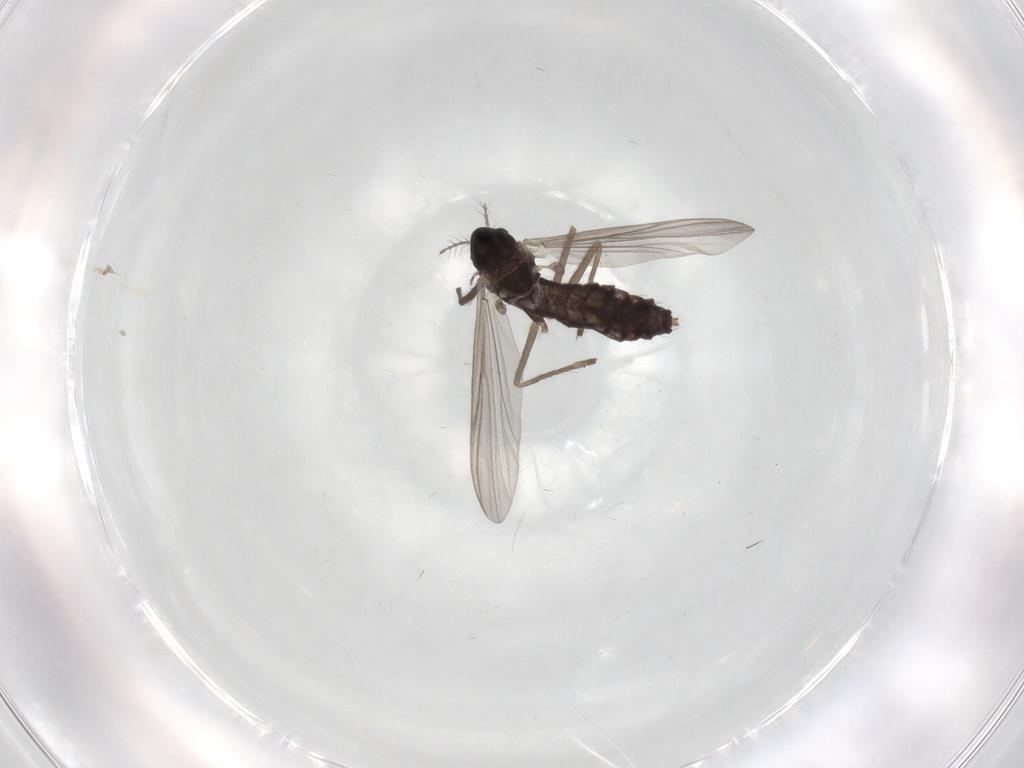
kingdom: Animalia
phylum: Arthropoda
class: Insecta
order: Diptera
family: Chironomidae
